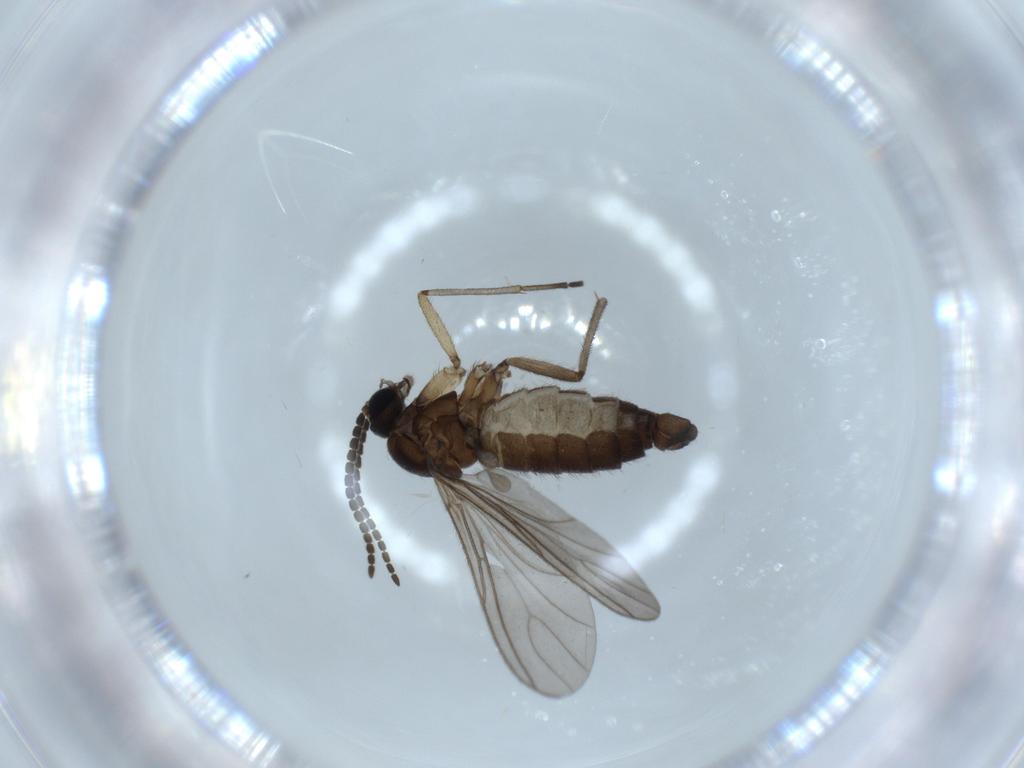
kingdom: Animalia
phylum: Arthropoda
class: Insecta
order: Diptera
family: Sciaridae
